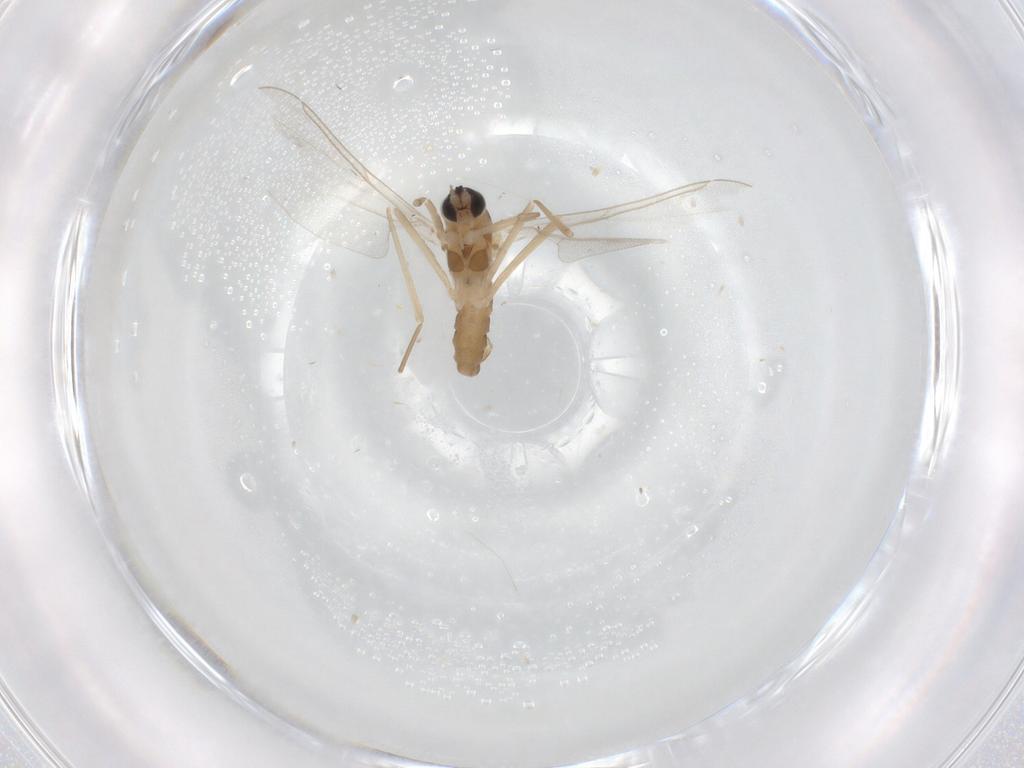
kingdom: Animalia
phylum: Arthropoda
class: Insecta
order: Diptera
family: Cecidomyiidae
